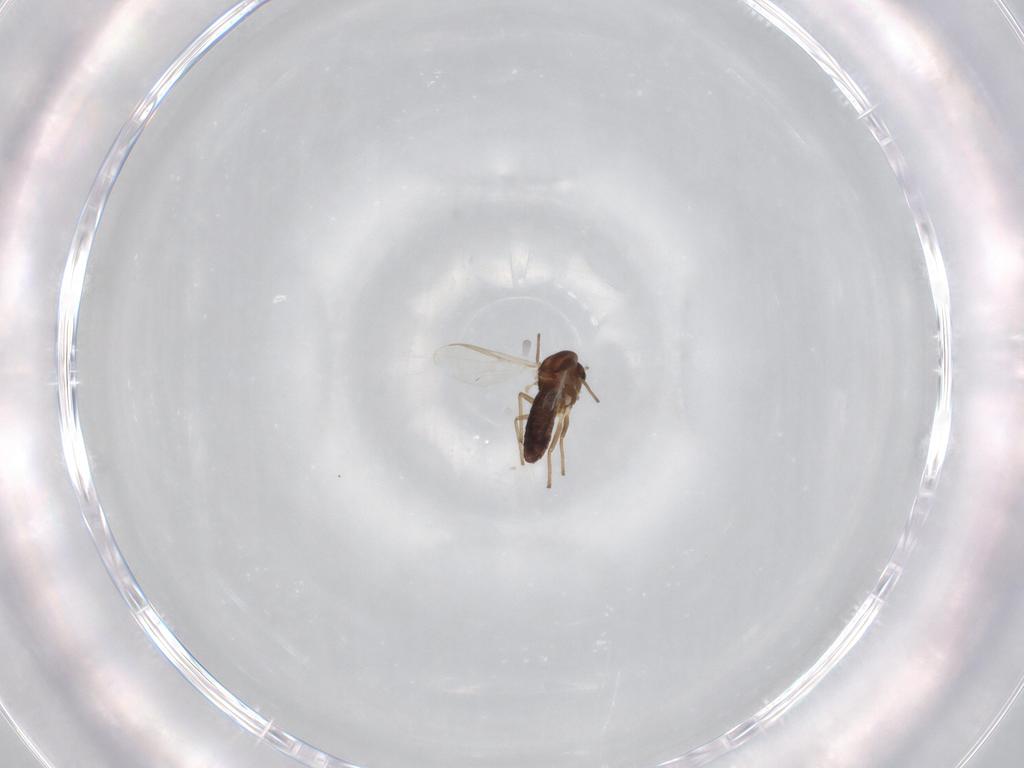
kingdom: Animalia
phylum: Arthropoda
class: Insecta
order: Diptera
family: Chironomidae
